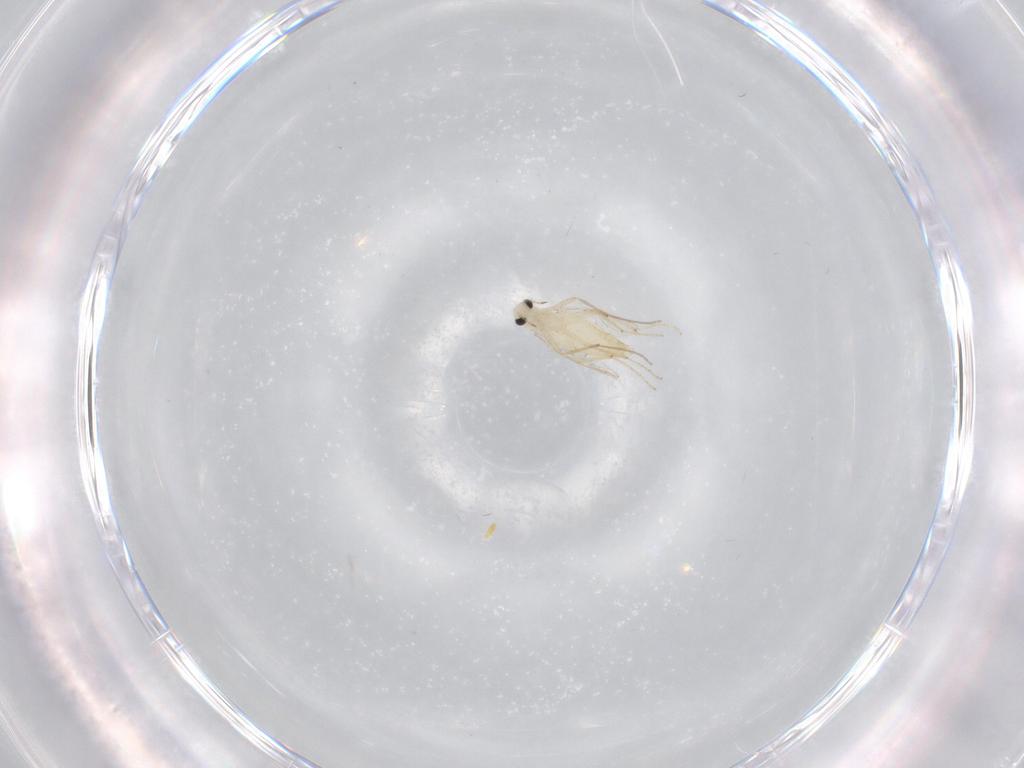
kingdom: Animalia
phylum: Arthropoda
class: Insecta
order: Diptera
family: Chironomidae
